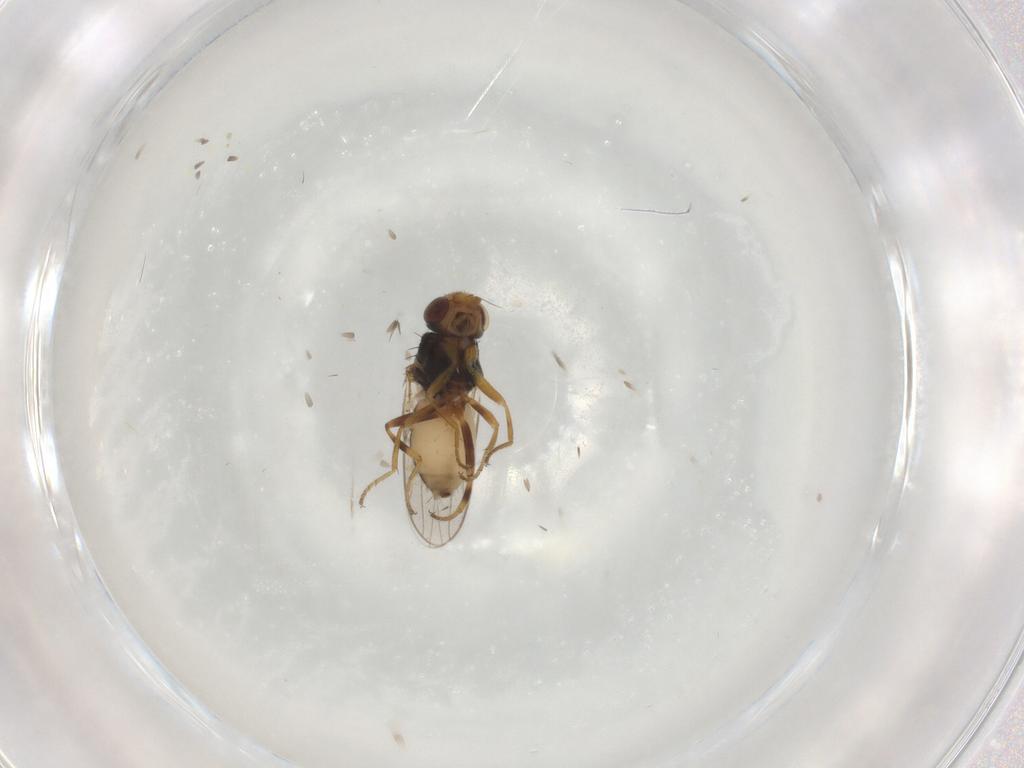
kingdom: Animalia
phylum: Arthropoda
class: Insecta
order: Diptera
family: Chloropidae
